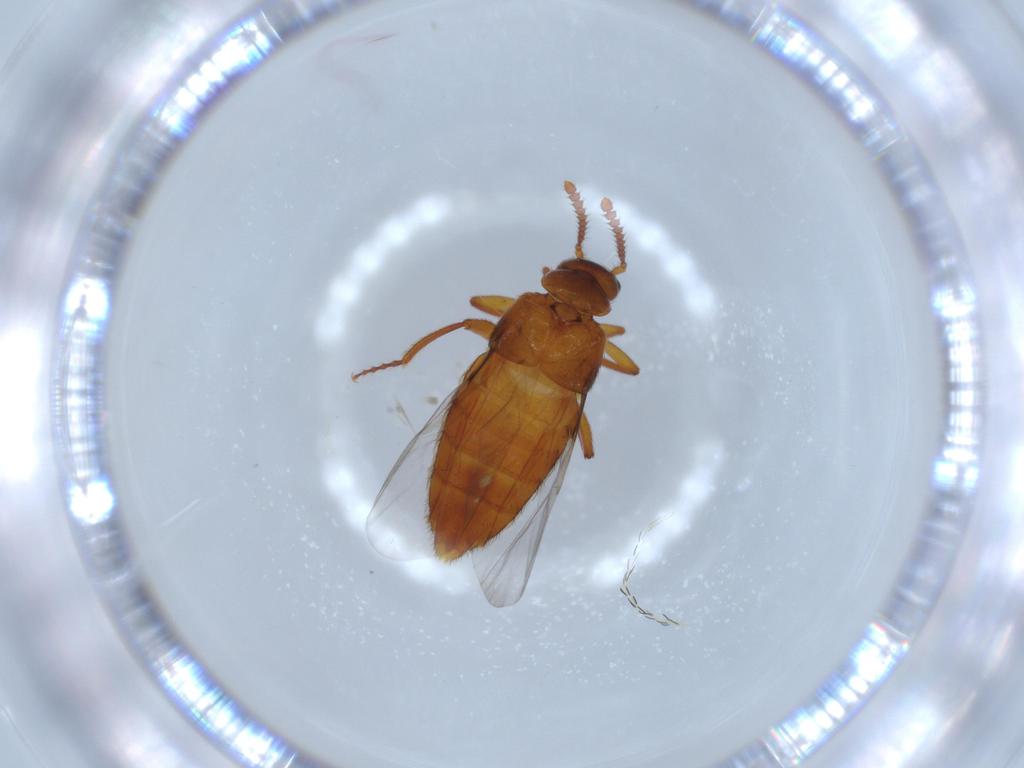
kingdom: Animalia
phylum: Arthropoda
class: Insecta
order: Coleoptera
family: Staphylinidae
